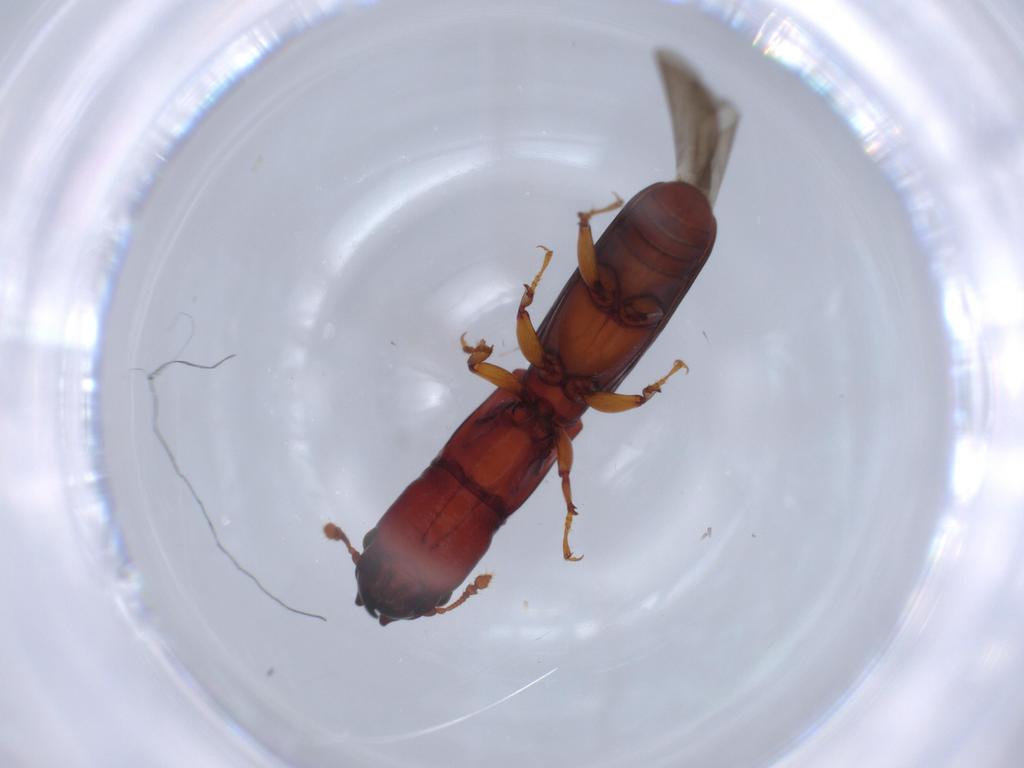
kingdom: Animalia
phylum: Arthropoda
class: Insecta
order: Coleoptera
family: Monotomidae
